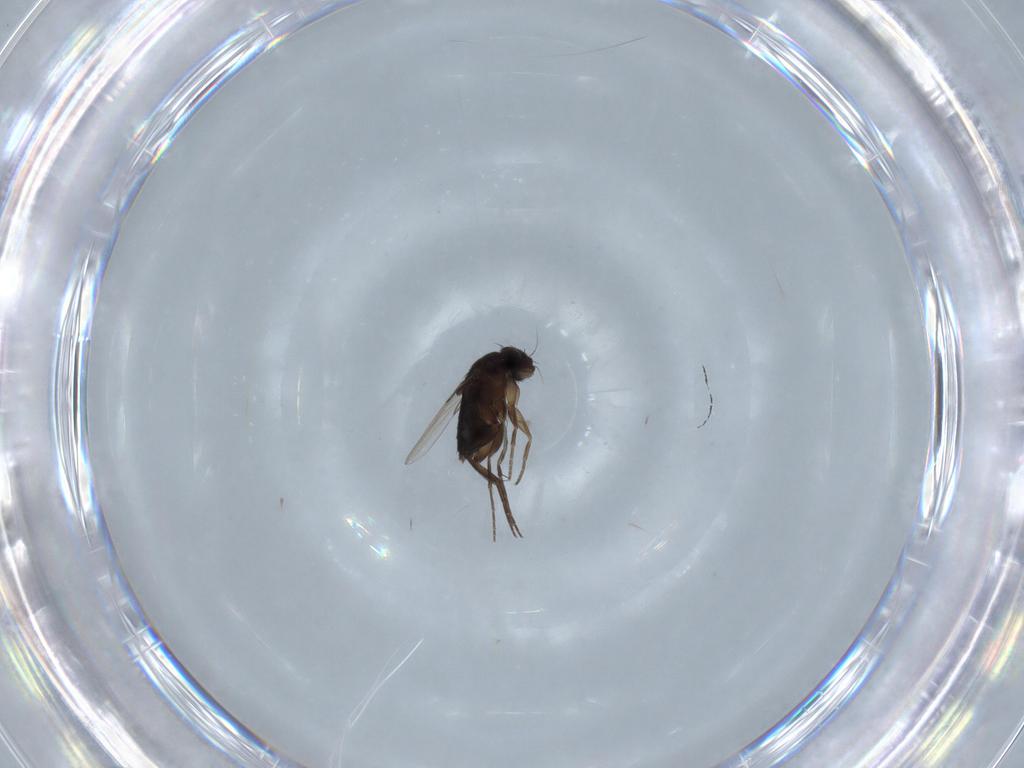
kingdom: Animalia
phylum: Arthropoda
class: Insecta
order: Diptera
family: Phoridae
